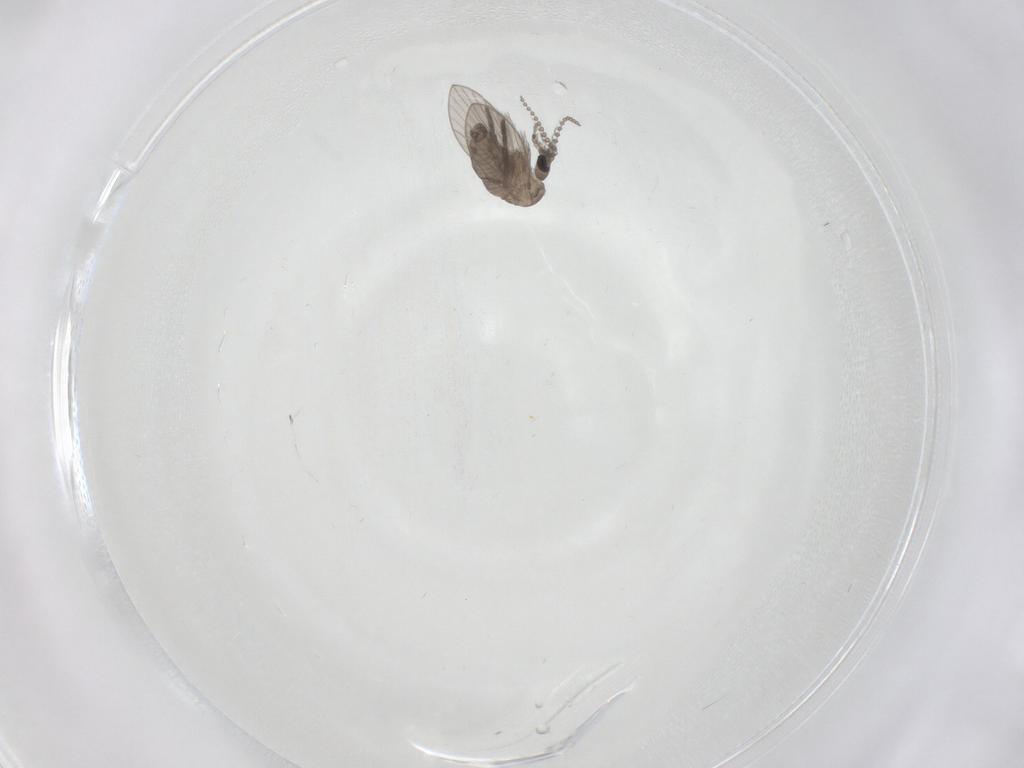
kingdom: Animalia
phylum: Arthropoda
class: Insecta
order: Diptera
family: Psychodidae
